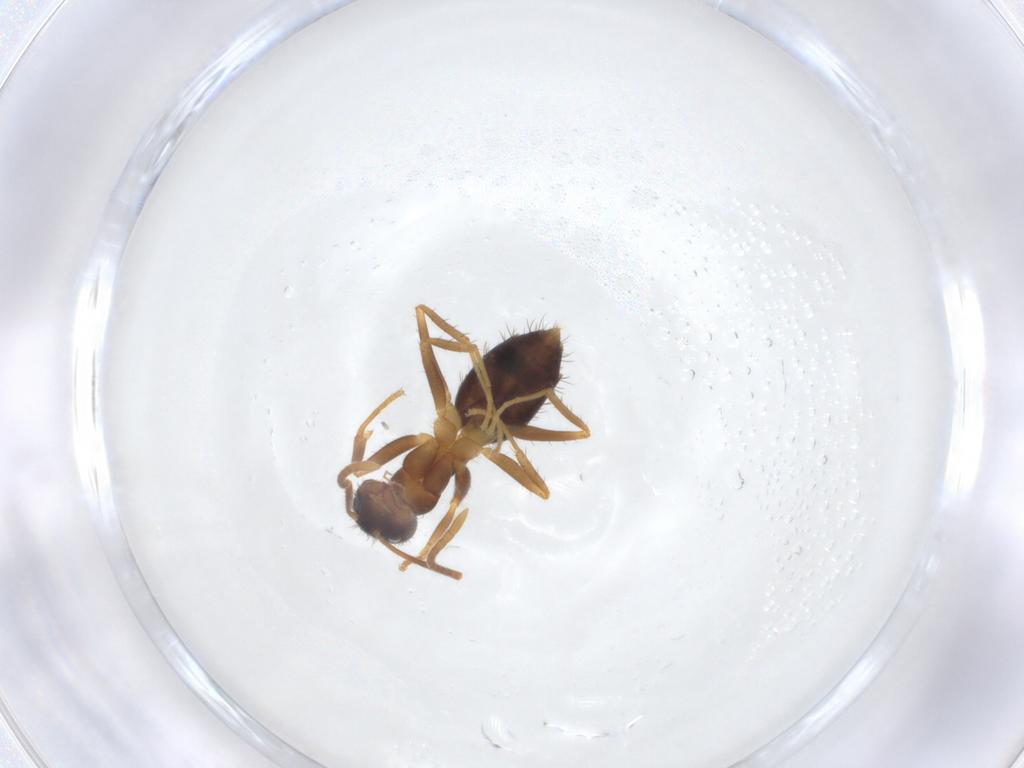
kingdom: Animalia
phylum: Arthropoda
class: Insecta
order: Hymenoptera
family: Formicidae
